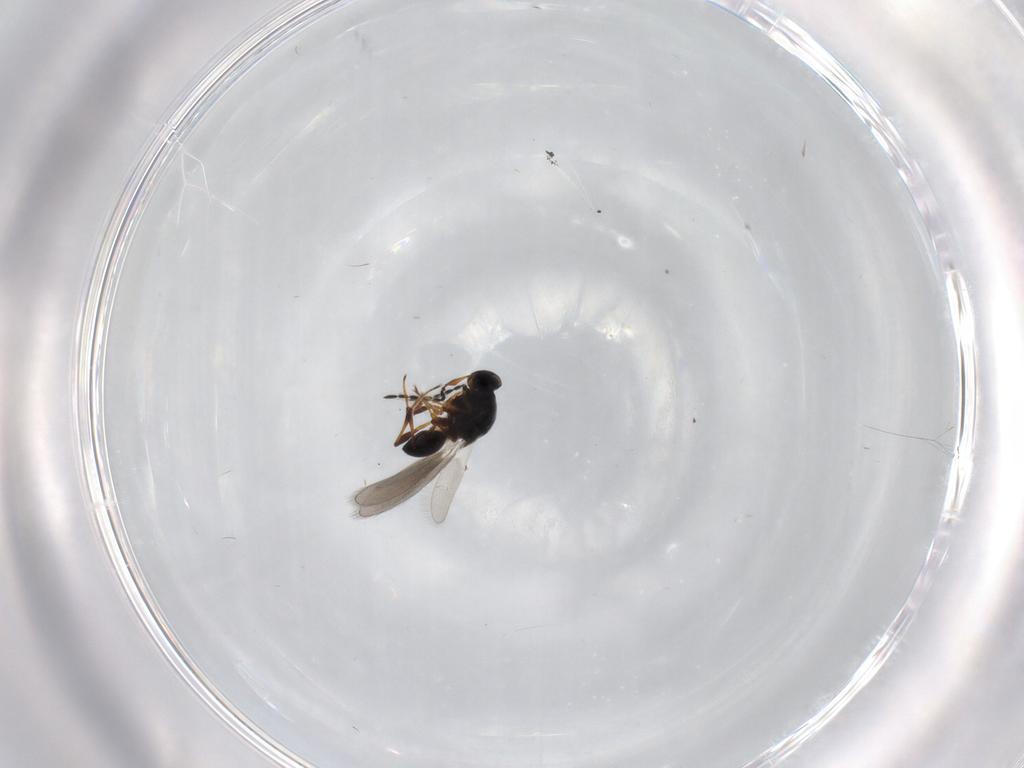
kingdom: Animalia
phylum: Arthropoda
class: Insecta
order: Hymenoptera
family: Platygastridae
